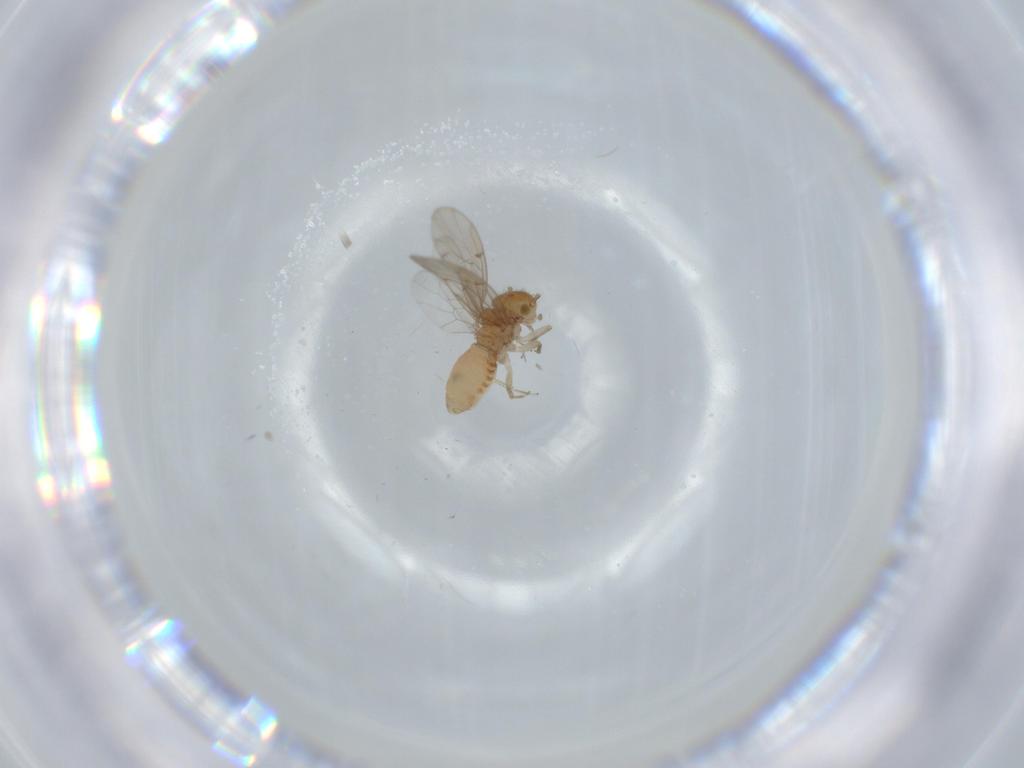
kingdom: Animalia
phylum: Arthropoda
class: Insecta
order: Psocodea
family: Ectopsocidae
